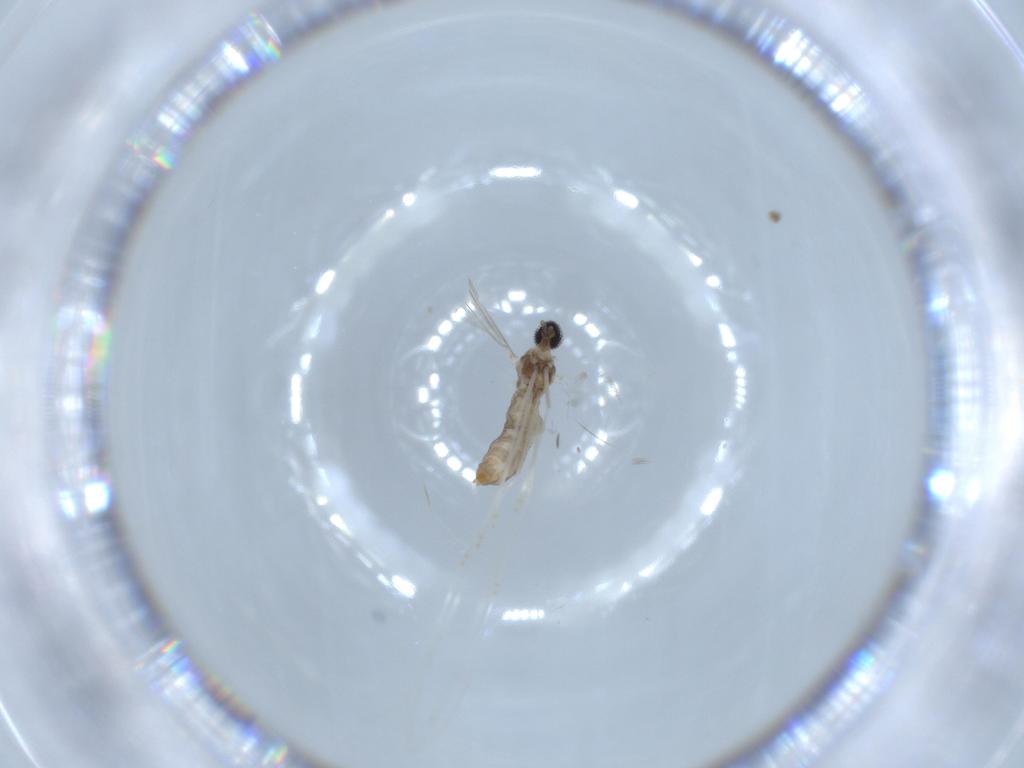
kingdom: Animalia
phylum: Arthropoda
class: Insecta
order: Diptera
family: Cecidomyiidae
